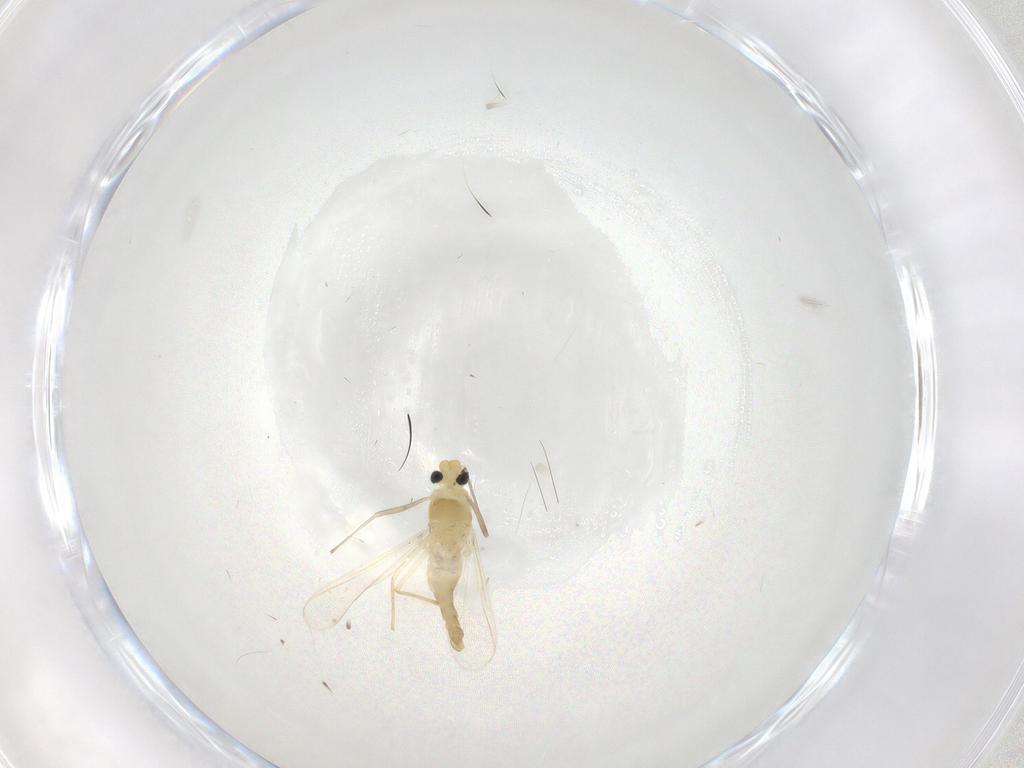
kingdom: Animalia
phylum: Arthropoda
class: Insecta
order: Diptera
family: Chironomidae
